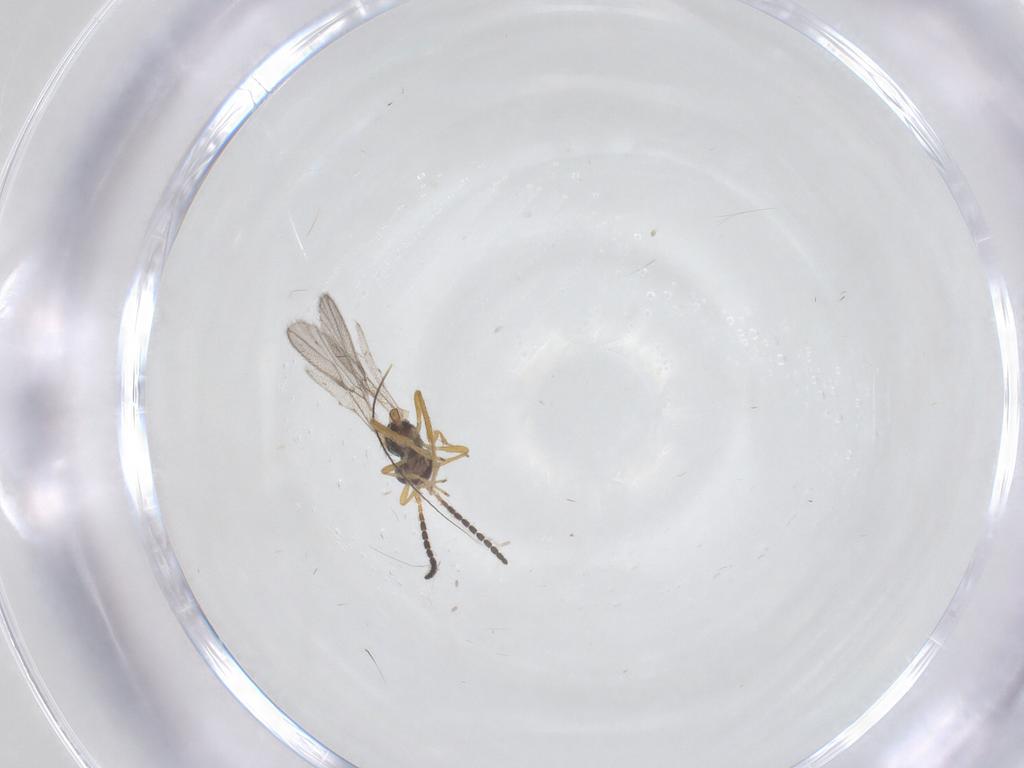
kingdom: Animalia
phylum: Arthropoda
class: Insecta
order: Hymenoptera
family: Braconidae
